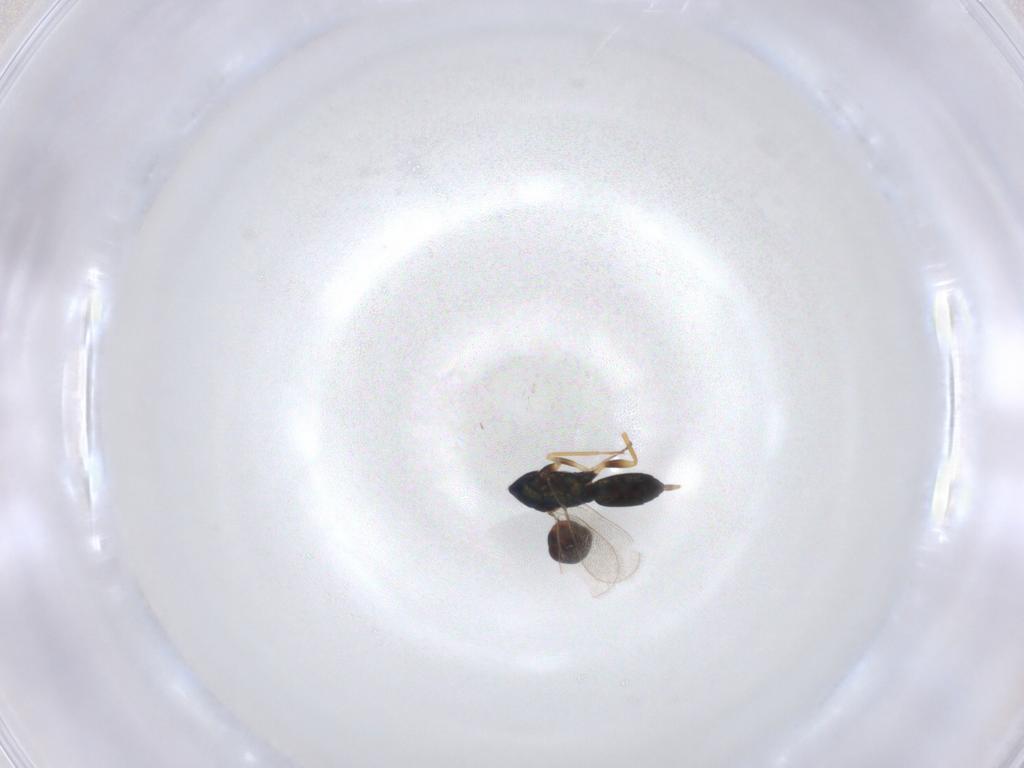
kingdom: Animalia
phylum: Arthropoda
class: Insecta
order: Hymenoptera
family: Eulophidae
